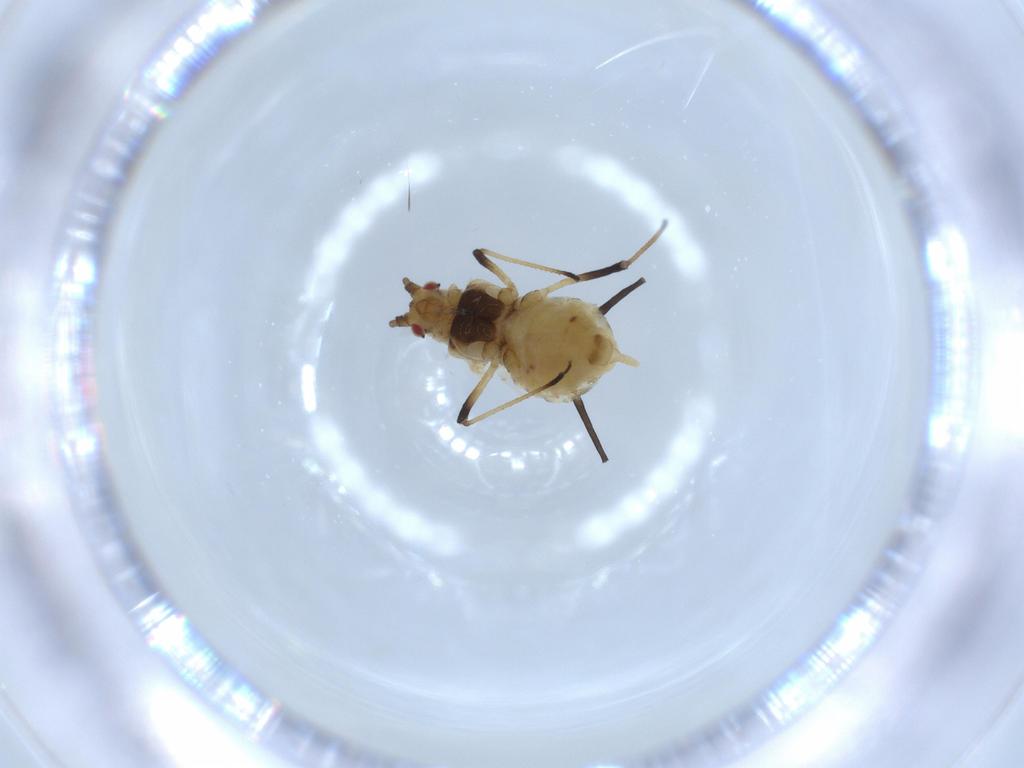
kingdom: Animalia
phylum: Arthropoda
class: Insecta
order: Hemiptera
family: Aphididae
